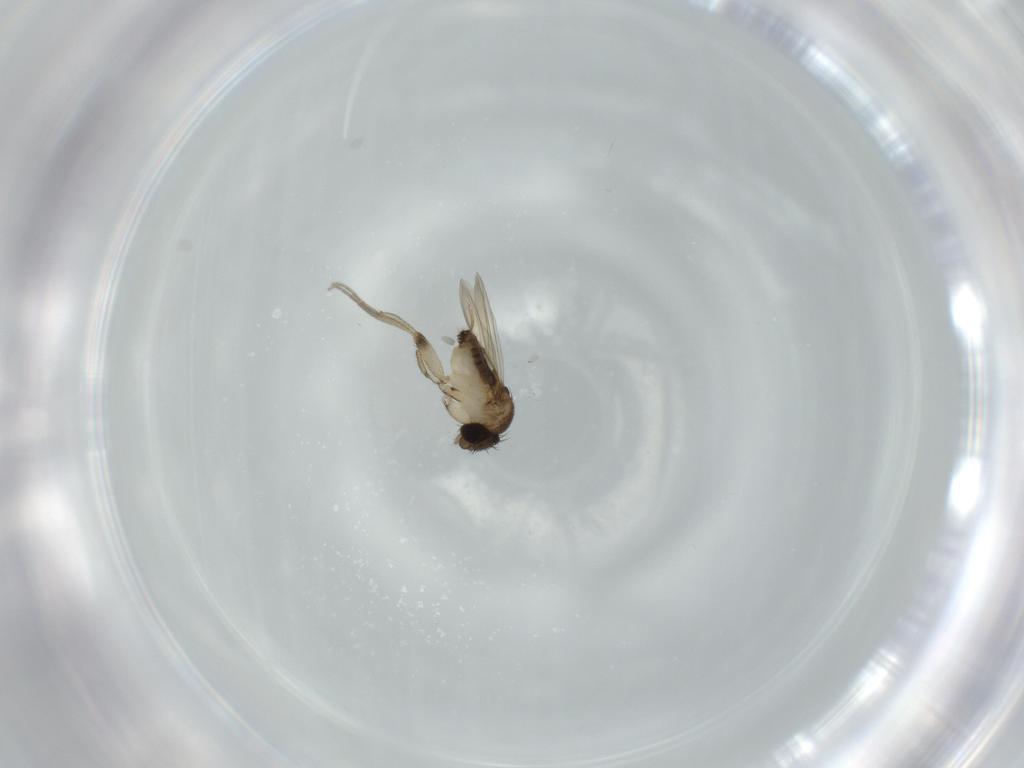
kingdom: Animalia
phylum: Arthropoda
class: Insecta
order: Diptera
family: Phoridae
